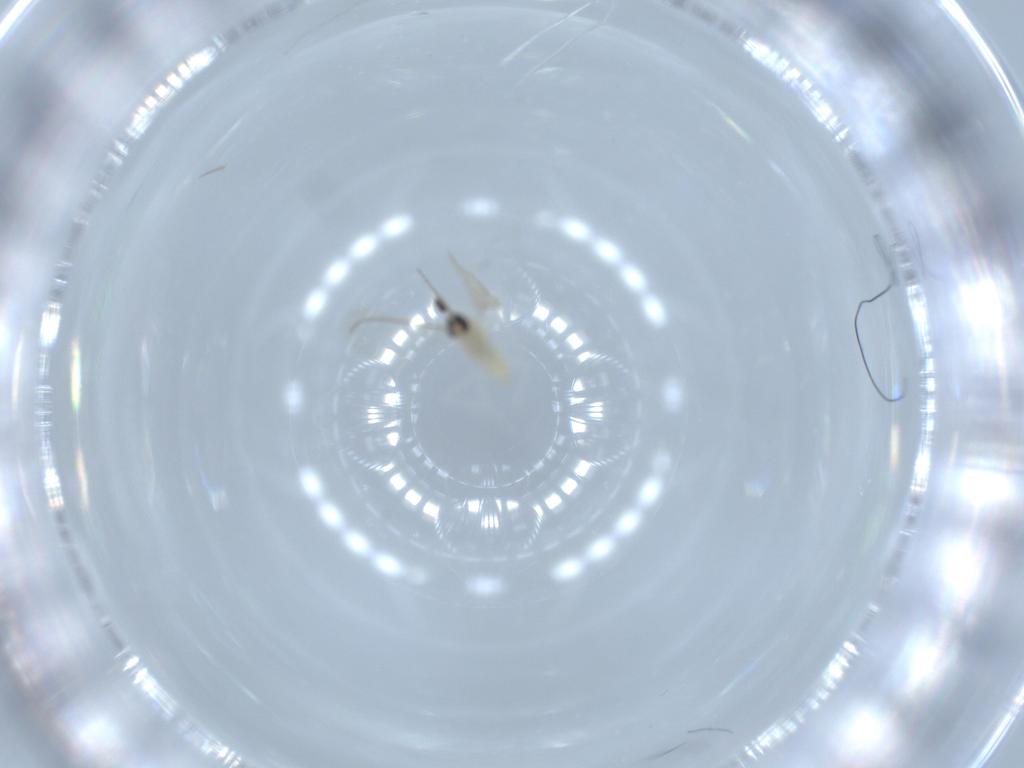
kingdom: Animalia
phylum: Arthropoda
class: Insecta
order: Diptera
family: Cecidomyiidae
